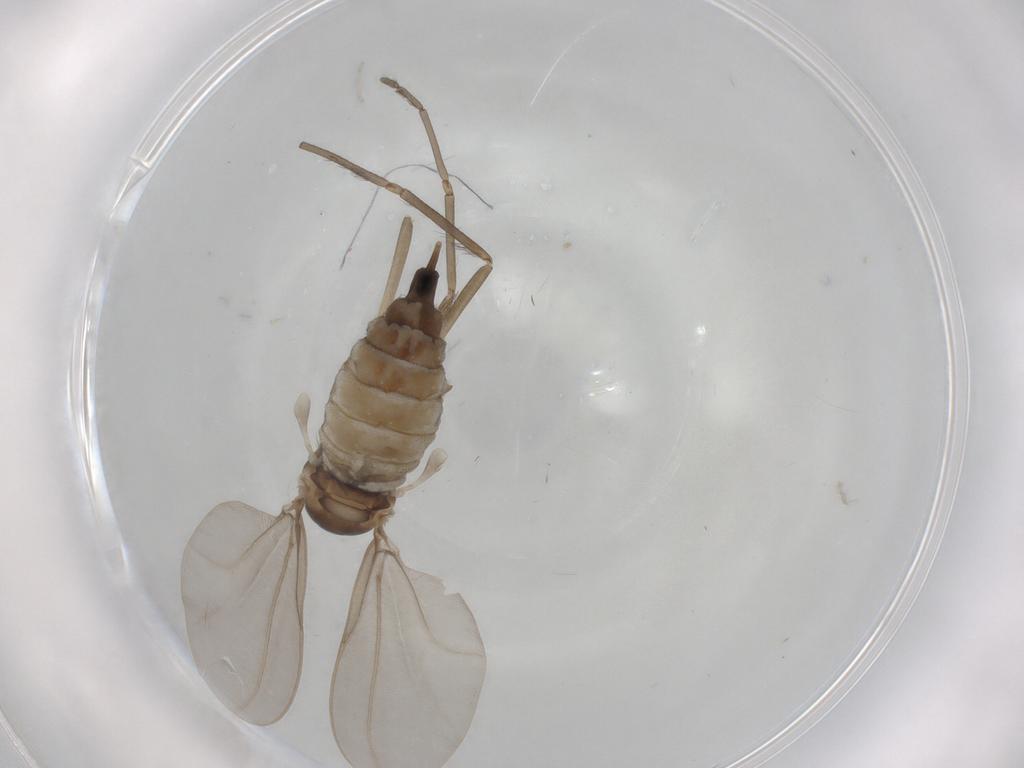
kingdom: Animalia
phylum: Arthropoda
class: Insecta
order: Diptera
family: Cecidomyiidae
